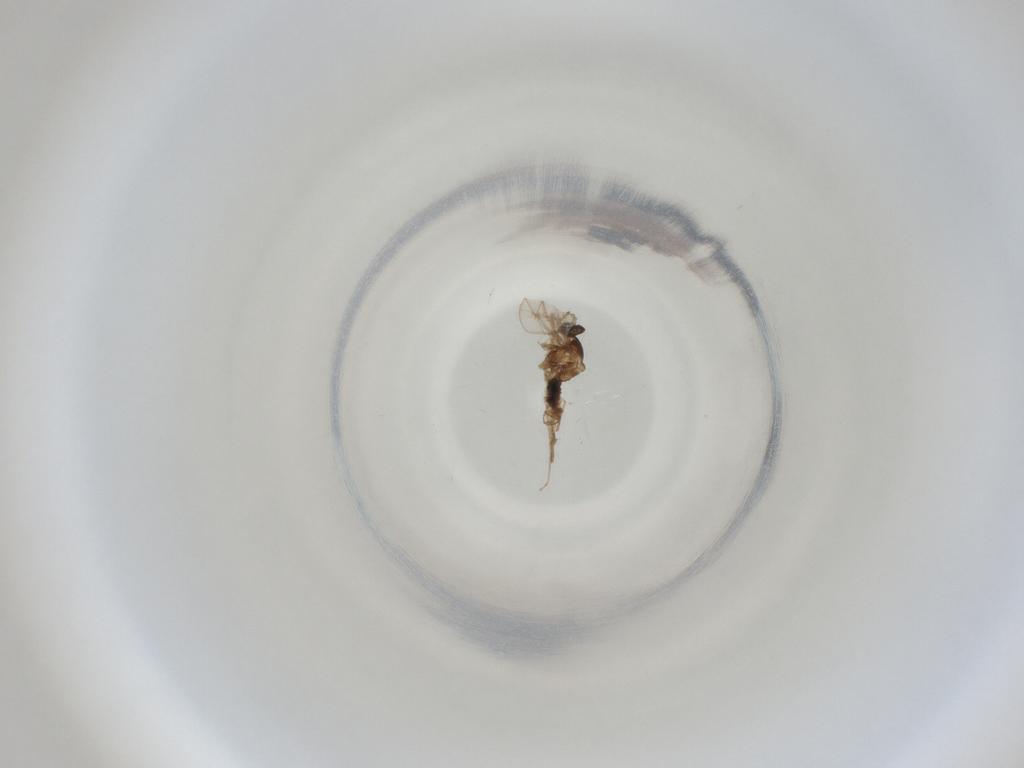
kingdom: Animalia
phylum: Arthropoda
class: Insecta
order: Diptera
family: Cecidomyiidae
